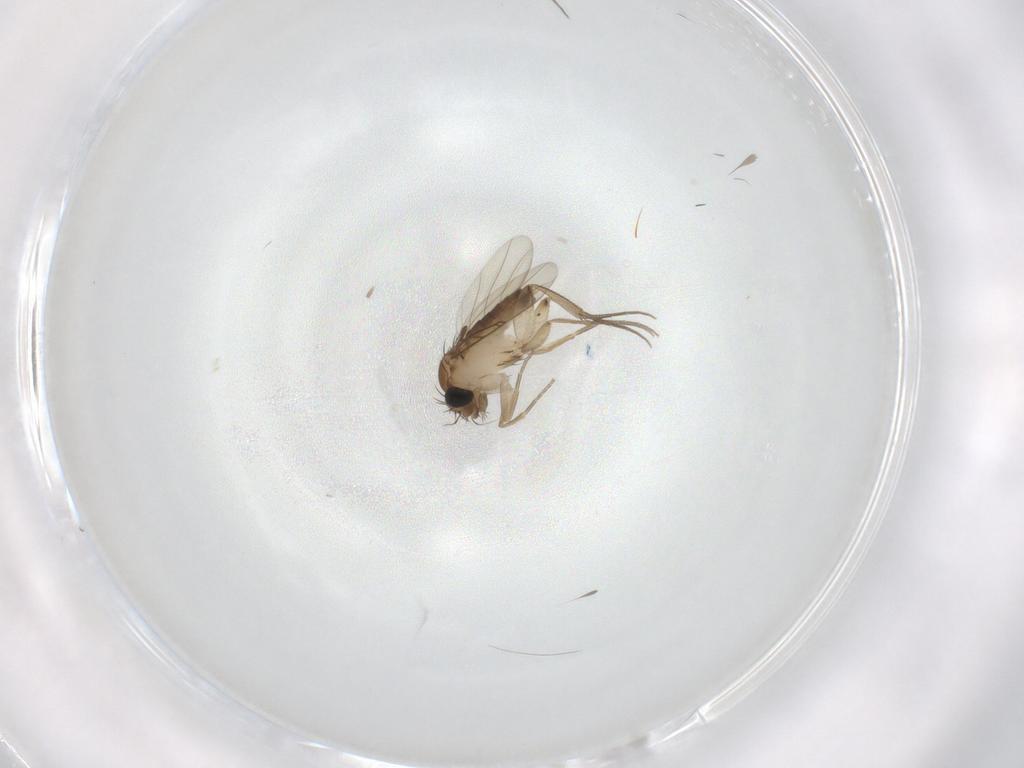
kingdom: Animalia
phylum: Arthropoda
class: Insecta
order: Diptera
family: Phoridae
